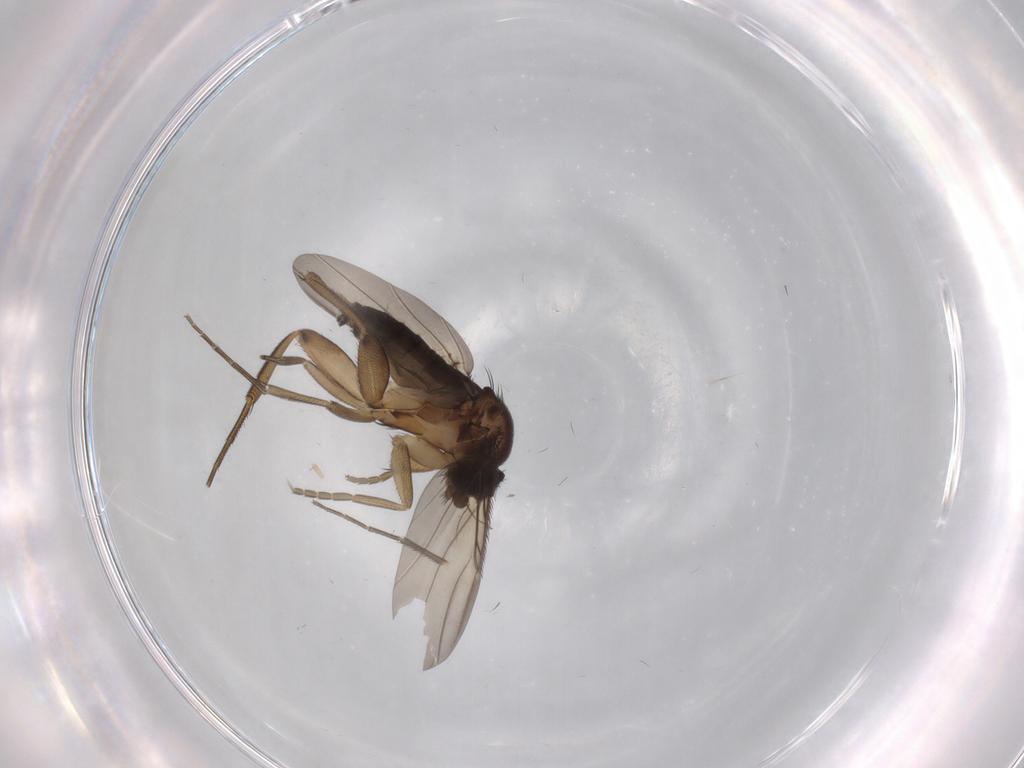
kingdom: Animalia
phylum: Arthropoda
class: Insecta
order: Diptera
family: Phoridae
